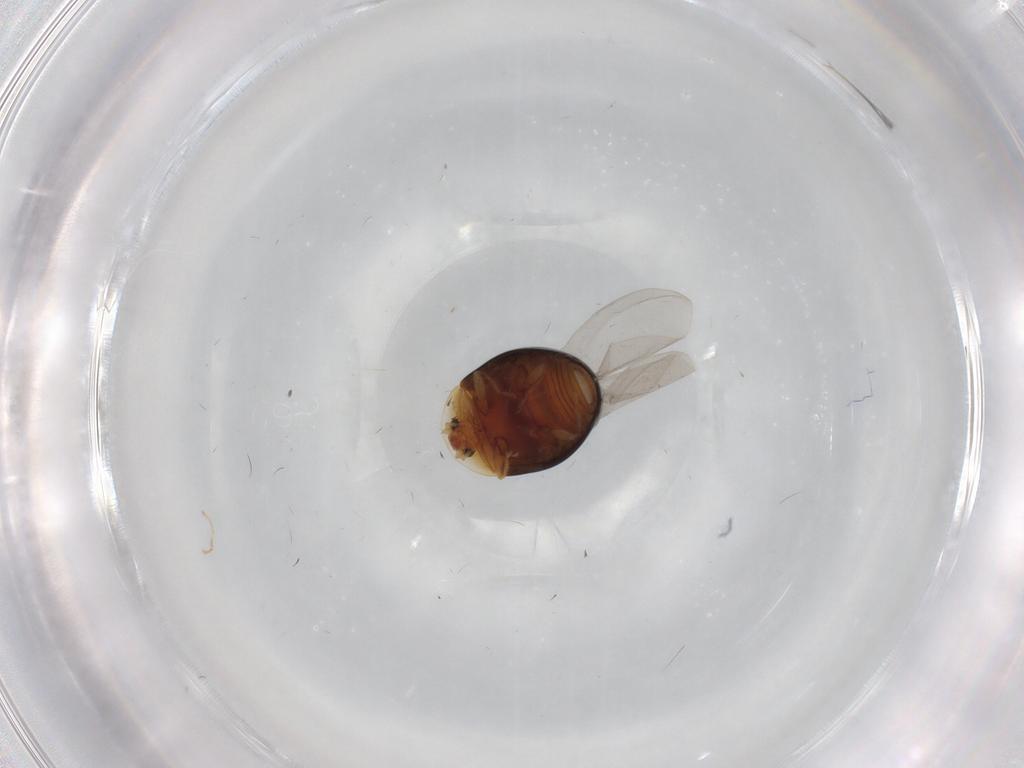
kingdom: Animalia
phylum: Arthropoda
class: Insecta
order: Coleoptera
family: Corylophidae
